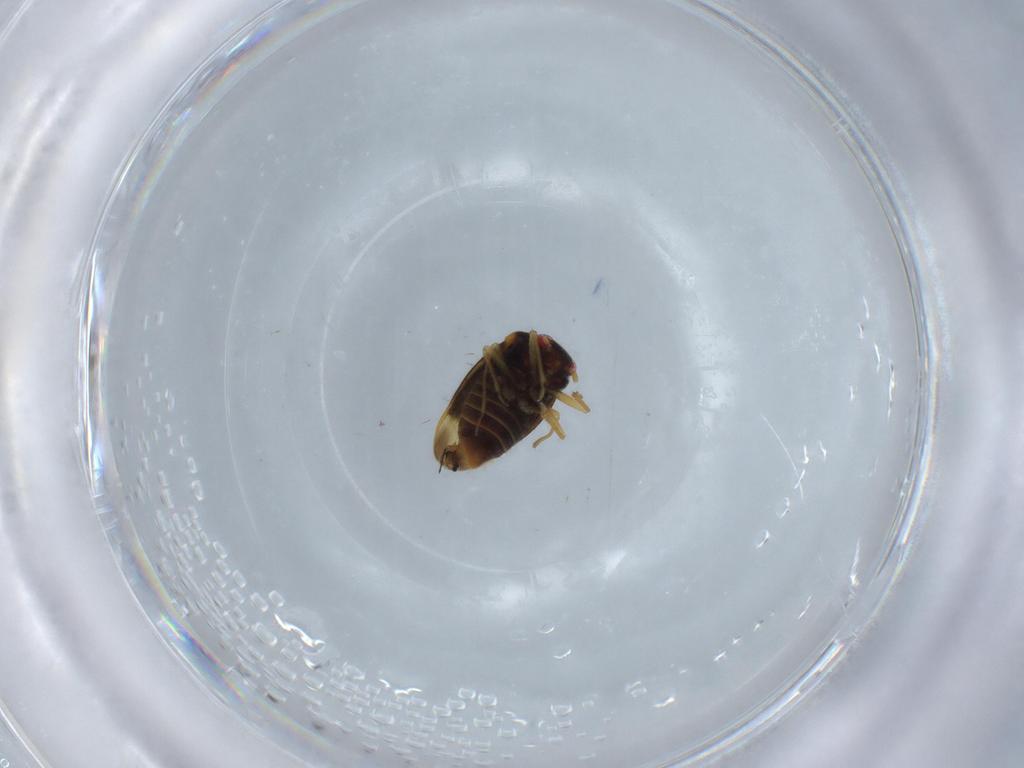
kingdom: Animalia
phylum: Arthropoda
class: Insecta
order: Hemiptera
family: Schizopteridae
